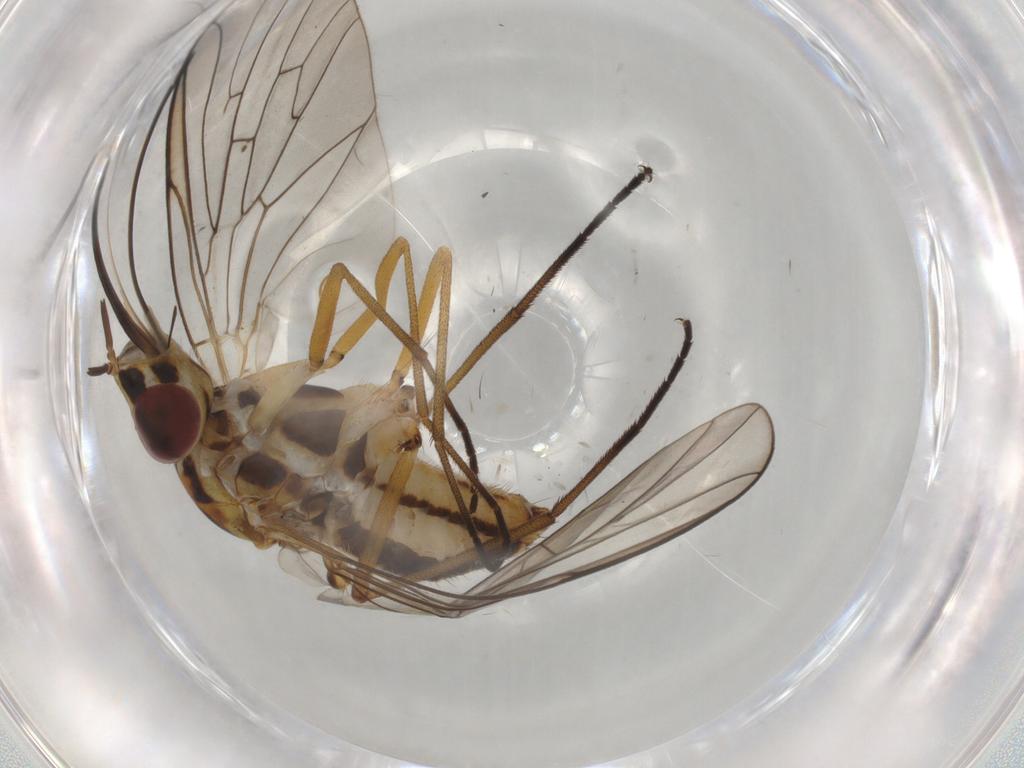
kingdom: Animalia
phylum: Arthropoda
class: Insecta
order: Diptera
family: Bombyliidae
